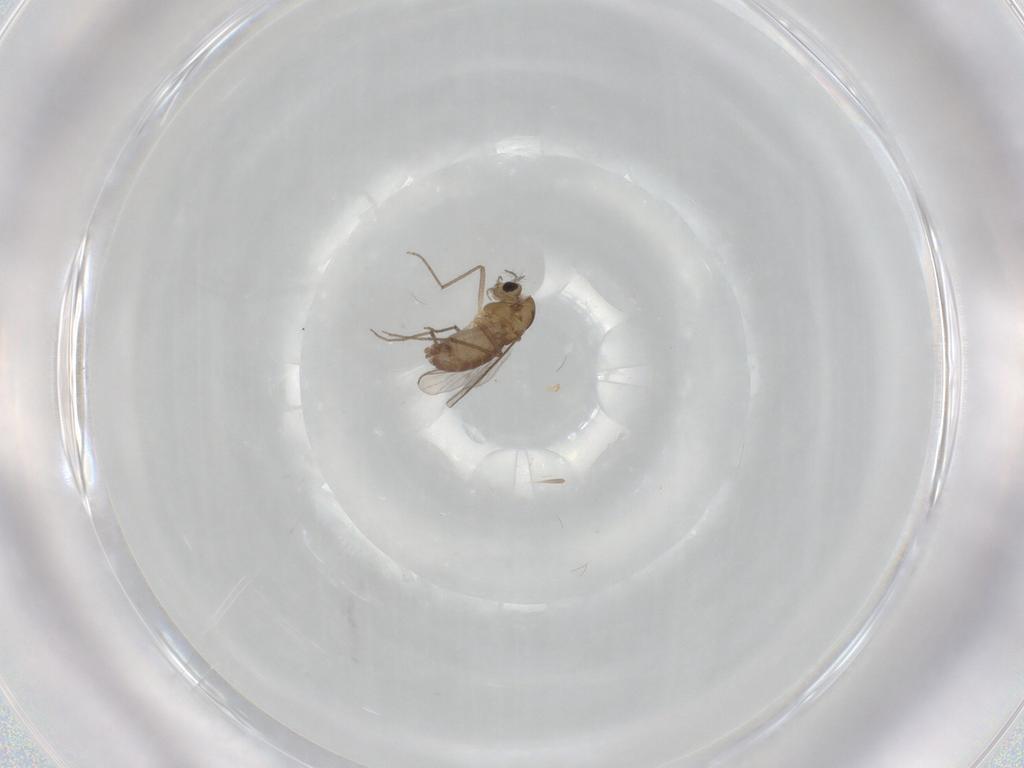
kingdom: Animalia
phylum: Arthropoda
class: Insecta
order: Diptera
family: Chironomidae
